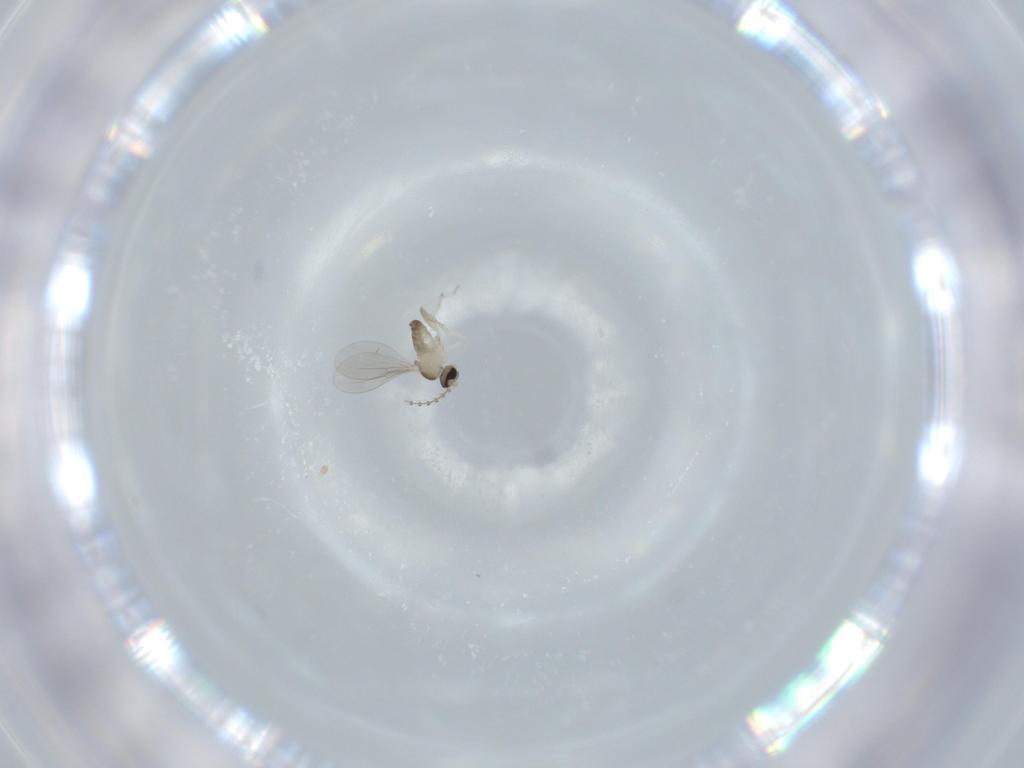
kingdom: Animalia
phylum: Arthropoda
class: Insecta
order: Diptera
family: Cecidomyiidae
